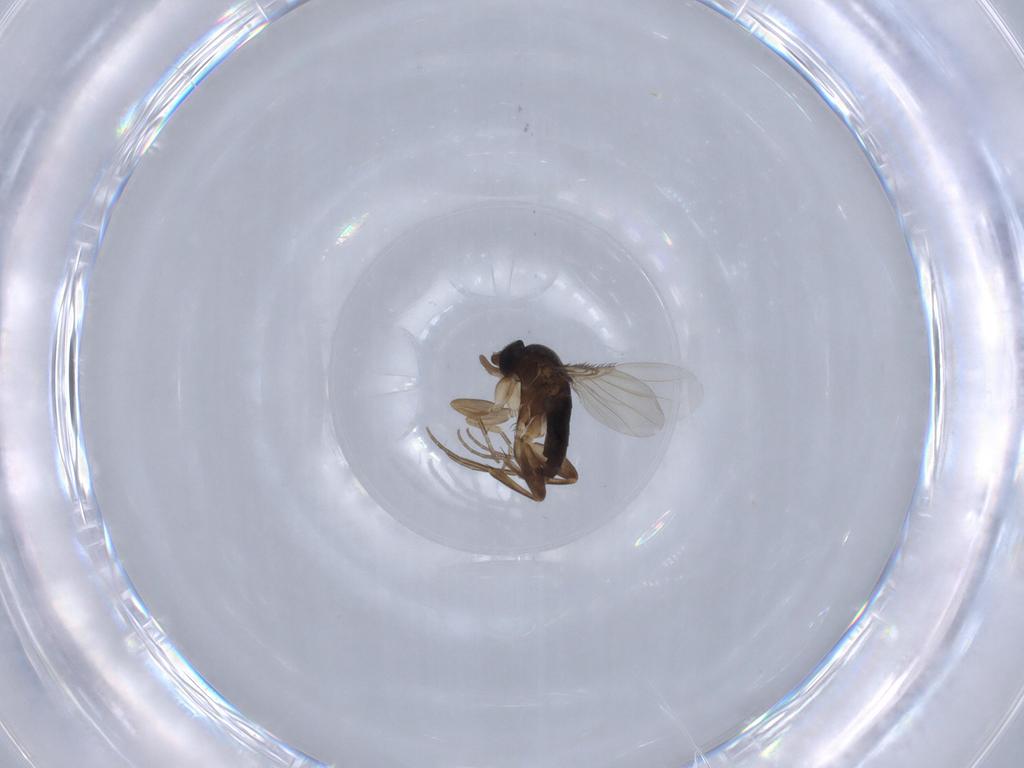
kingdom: Animalia
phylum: Arthropoda
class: Insecta
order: Diptera
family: Phoridae
